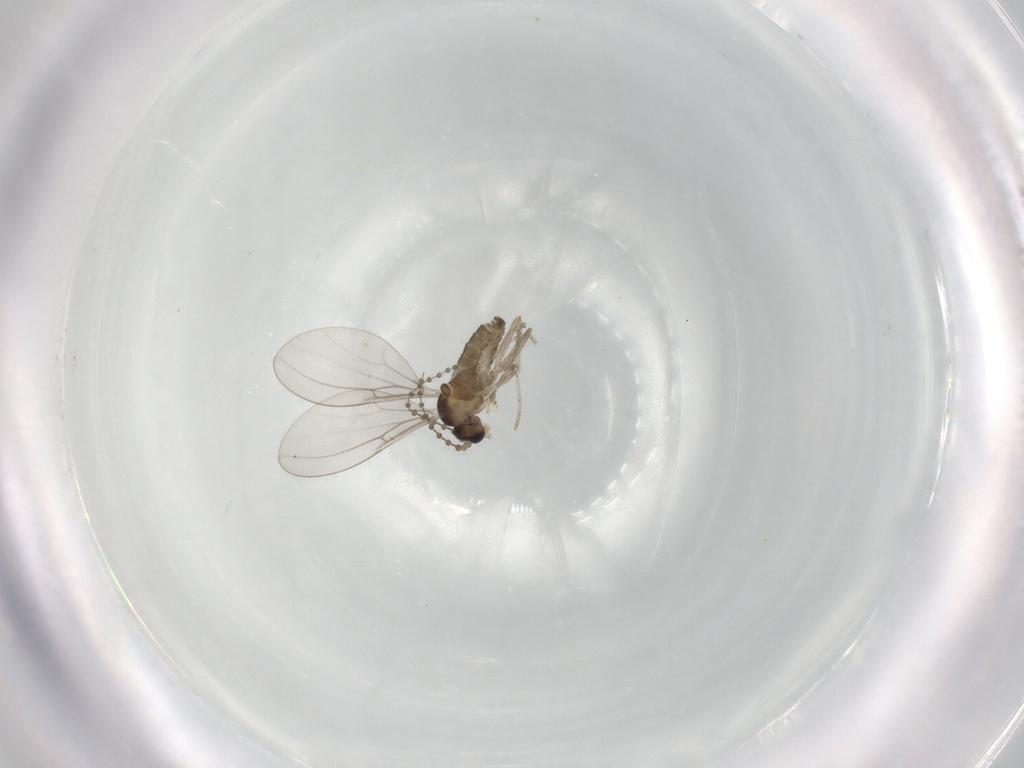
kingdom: Animalia
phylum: Arthropoda
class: Insecta
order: Diptera
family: Cecidomyiidae
